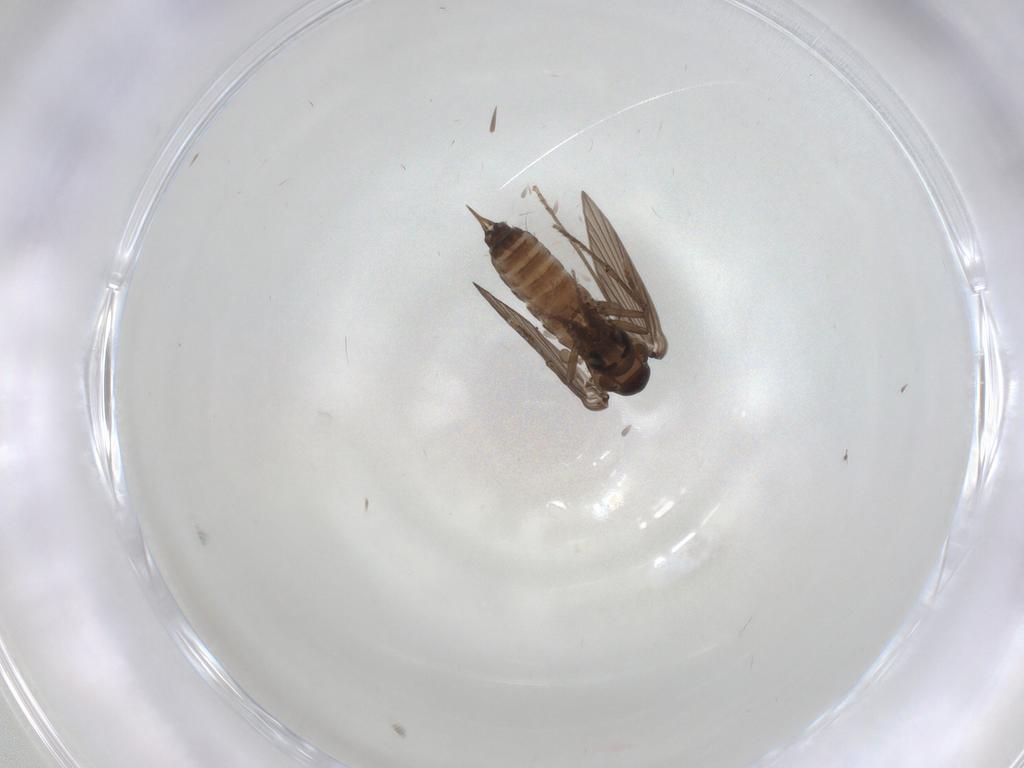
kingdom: Animalia
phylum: Arthropoda
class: Insecta
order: Diptera
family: Psychodidae
